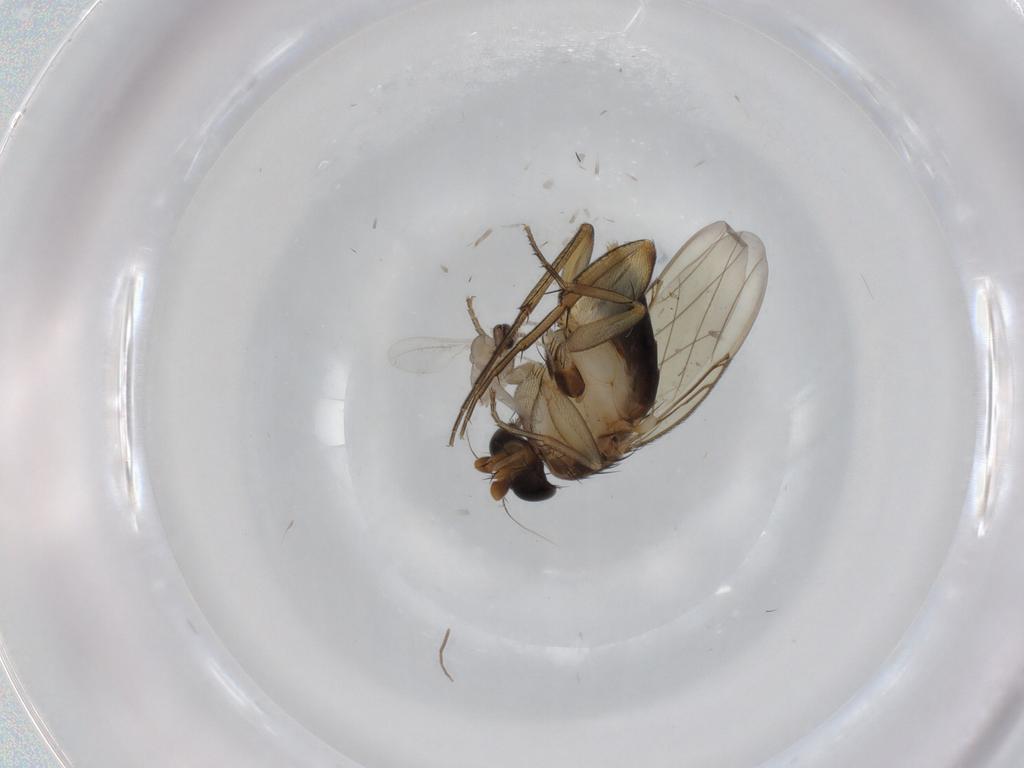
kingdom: Animalia
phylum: Arthropoda
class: Insecta
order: Diptera
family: Cecidomyiidae
